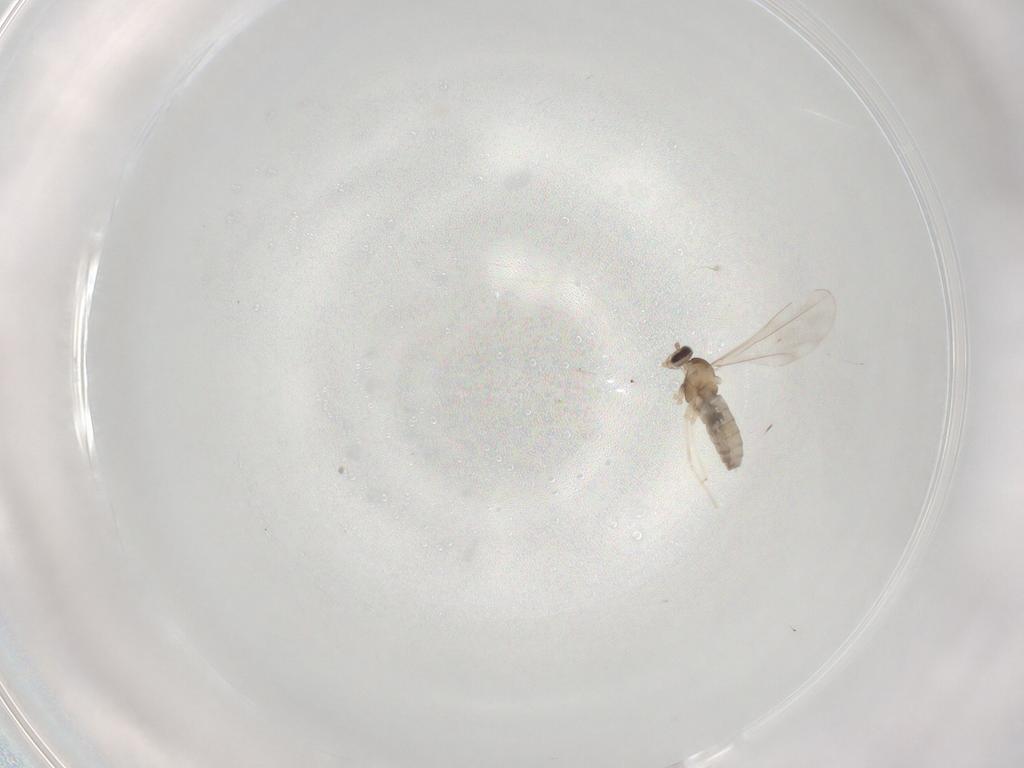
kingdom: Animalia
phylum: Arthropoda
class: Insecta
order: Diptera
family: Cecidomyiidae
